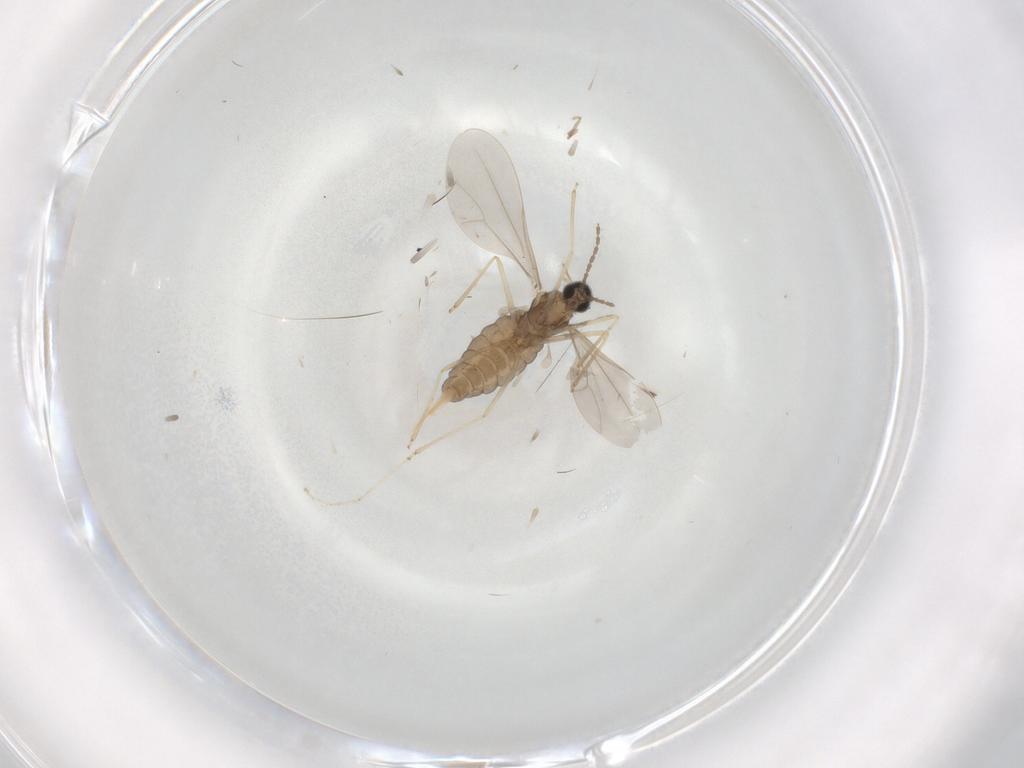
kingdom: Animalia
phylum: Arthropoda
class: Insecta
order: Diptera
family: Cecidomyiidae
